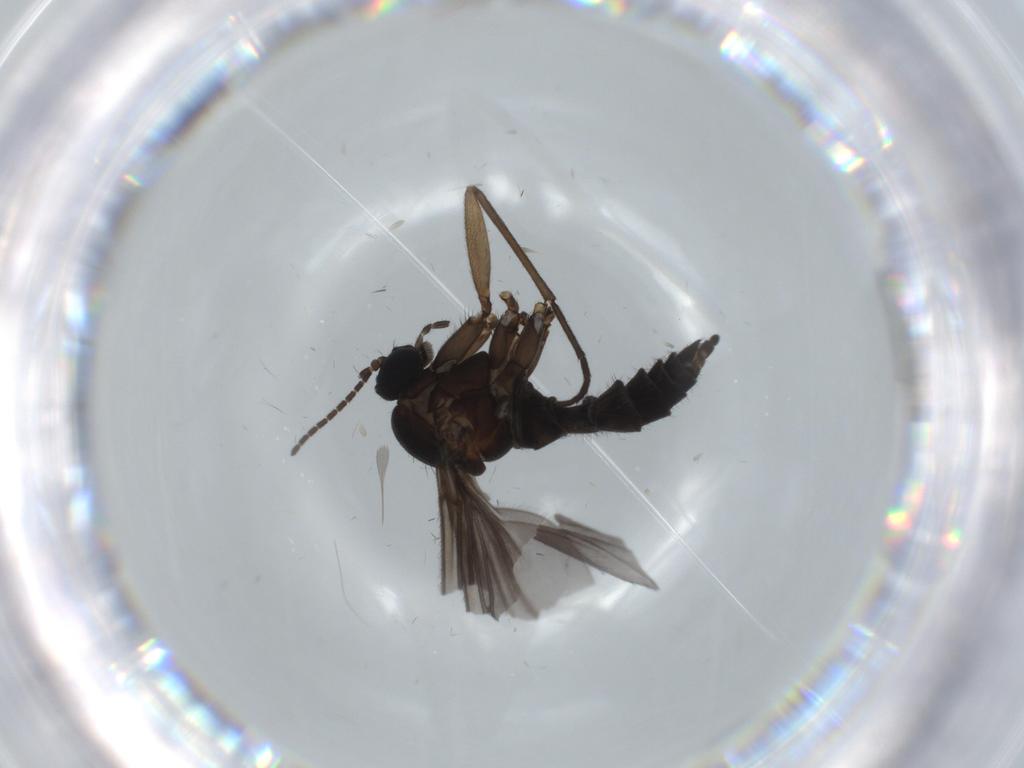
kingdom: Animalia
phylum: Arthropoda
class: Insecta
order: Diptera
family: Sciaridae
